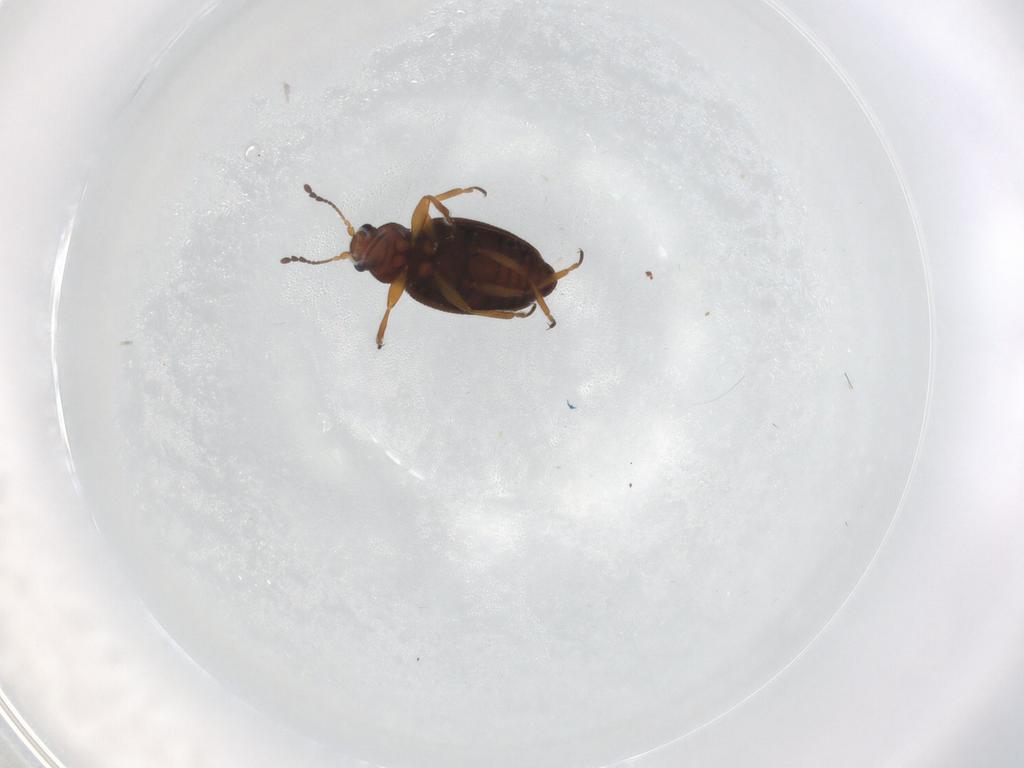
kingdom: Animalia
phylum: Arthropoda
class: Insecta
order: Coleoptera
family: Latridiidae
